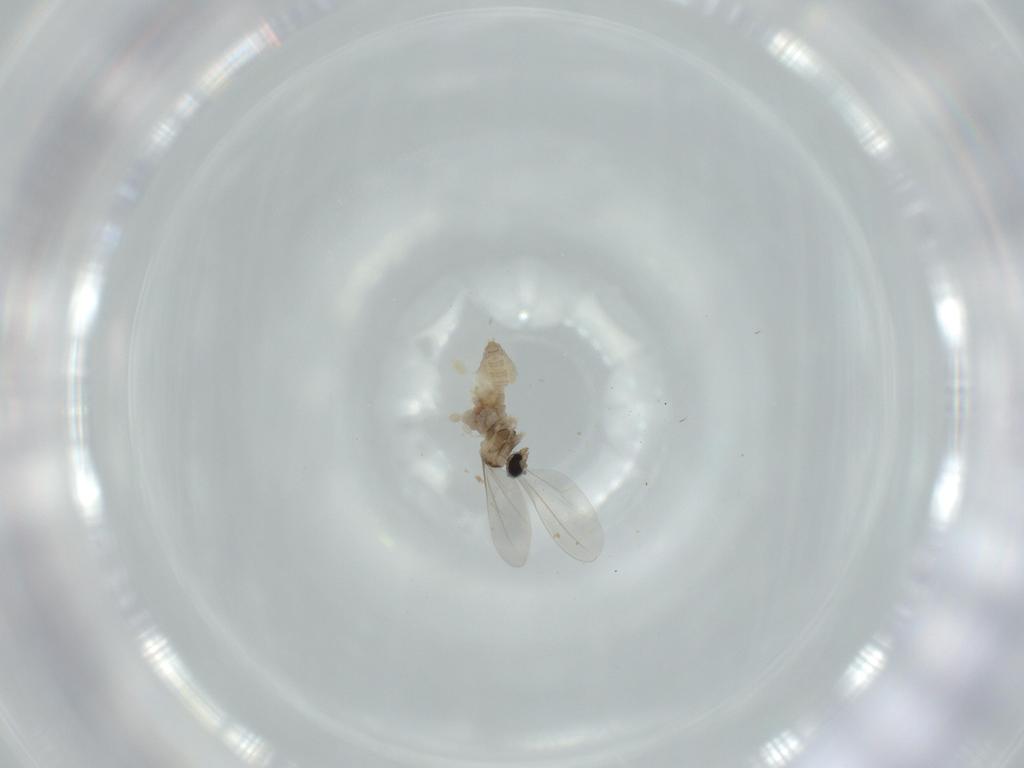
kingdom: Animalia
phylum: Arthropoda
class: Insecta
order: Diptera
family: Cecidomyiidae
